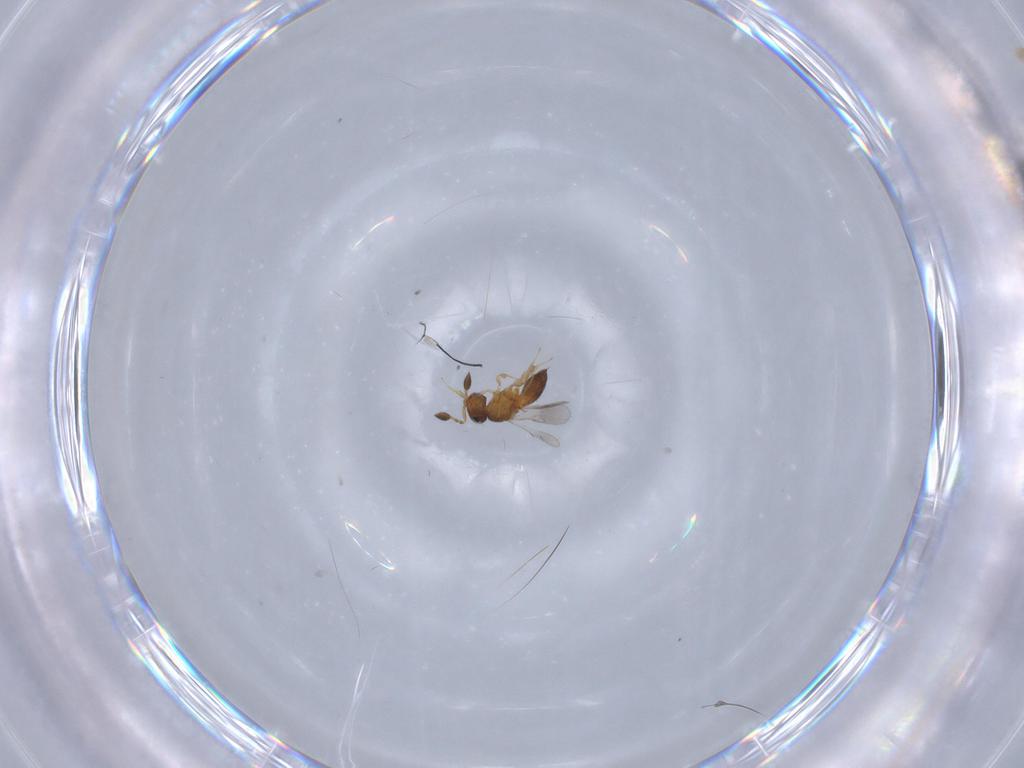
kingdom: Animalia
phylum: Arthropoda
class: Insecta
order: Hymenoptera
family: Scelionidae
